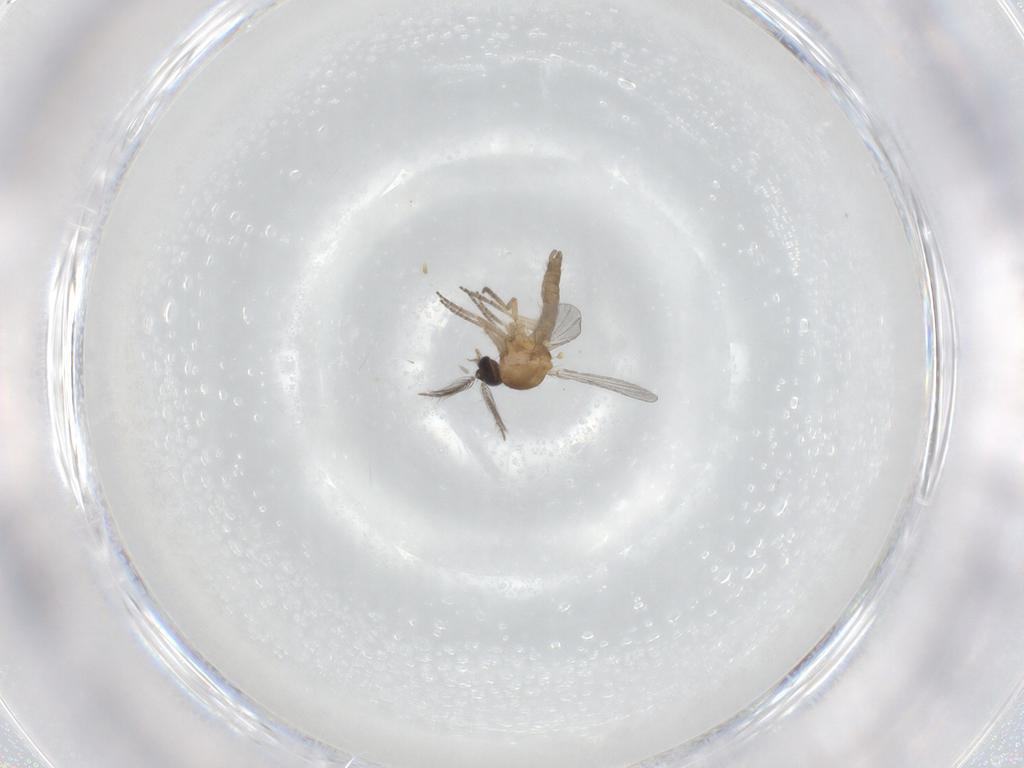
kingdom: Animalia
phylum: Arthropoda
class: Insecta
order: Diptera
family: Ceratopogonidae
